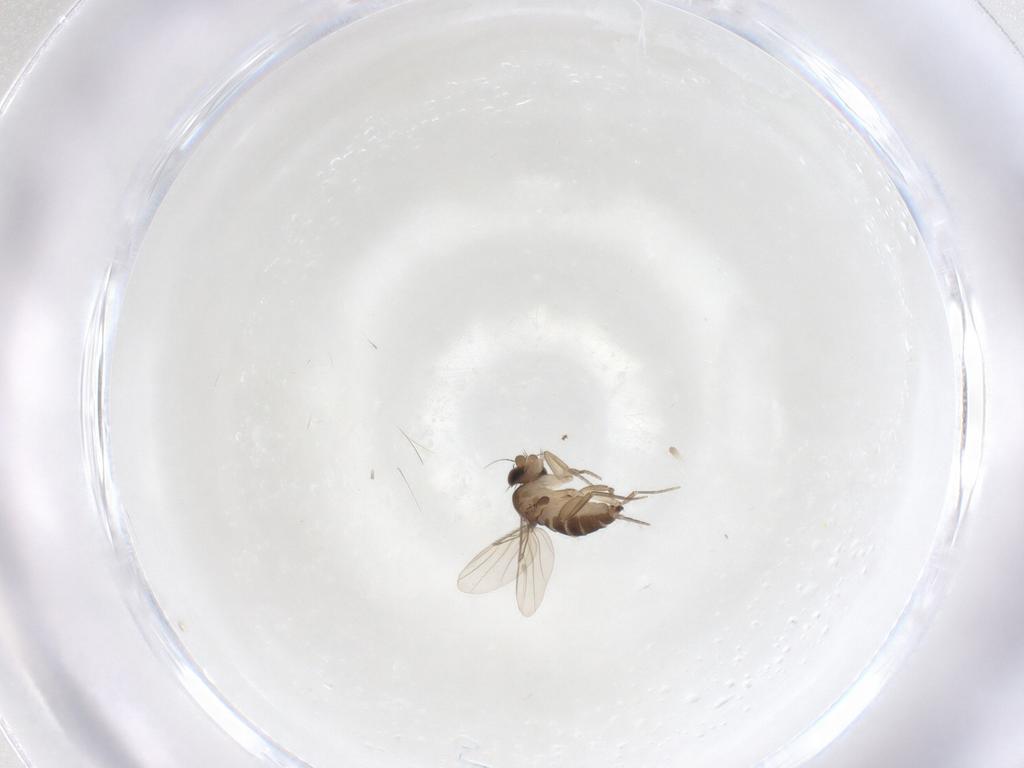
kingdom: Animalia
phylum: Arthropoda
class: Insecta
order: Diptera
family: Phoridae
